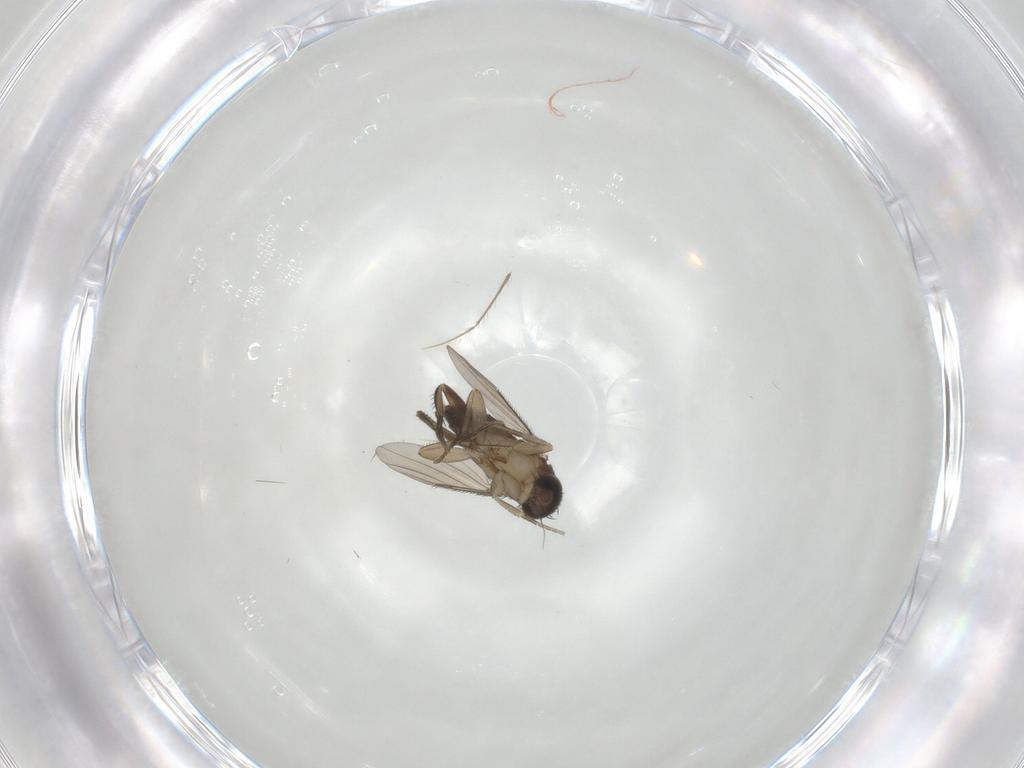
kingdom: Animalia
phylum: Arthropoda
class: Insecta
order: Diptera
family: Phoridae
